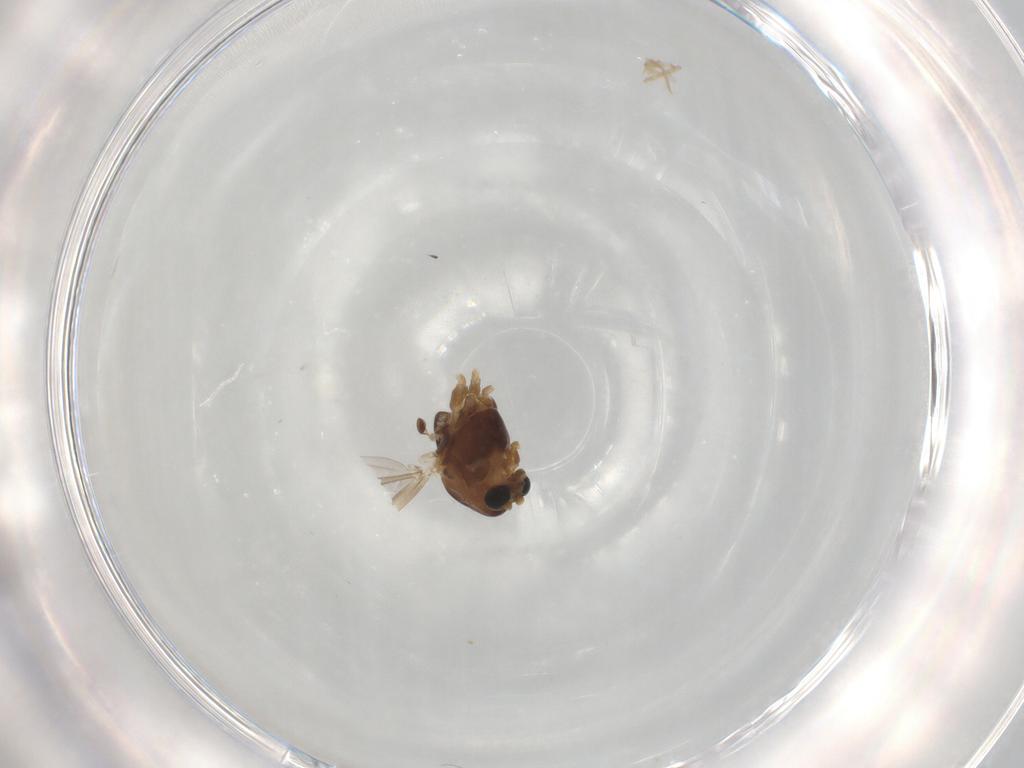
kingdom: Animalia
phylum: Arthropoda
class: Insecta
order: Diptera
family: Chironomidae
